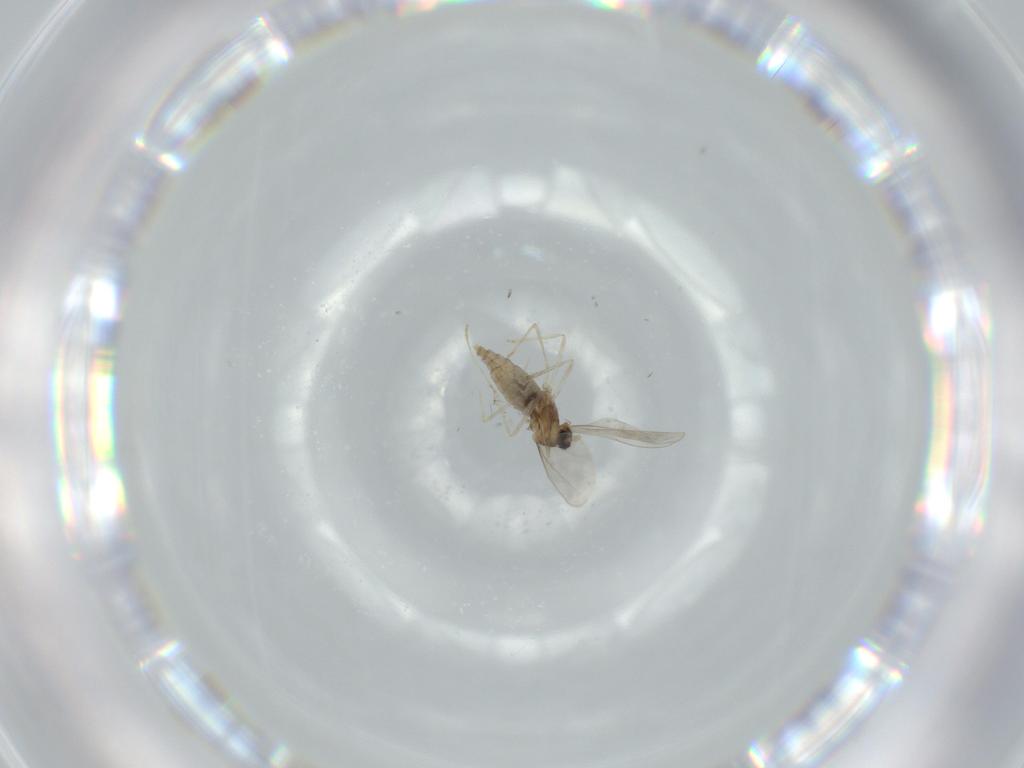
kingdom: Animalia
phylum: Arthropoda
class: Insecta
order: Diptera
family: Cecidomyiidae
